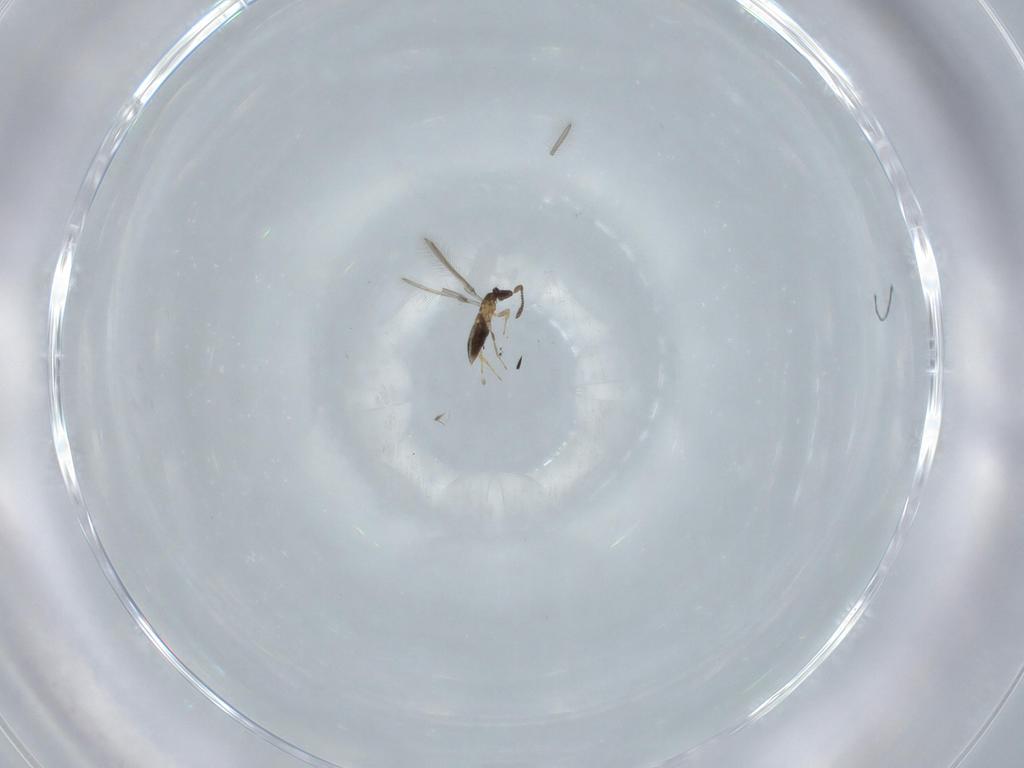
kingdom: Animalia
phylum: Arthropoda
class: Insecta
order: Hymenoptera
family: Mymaridae
